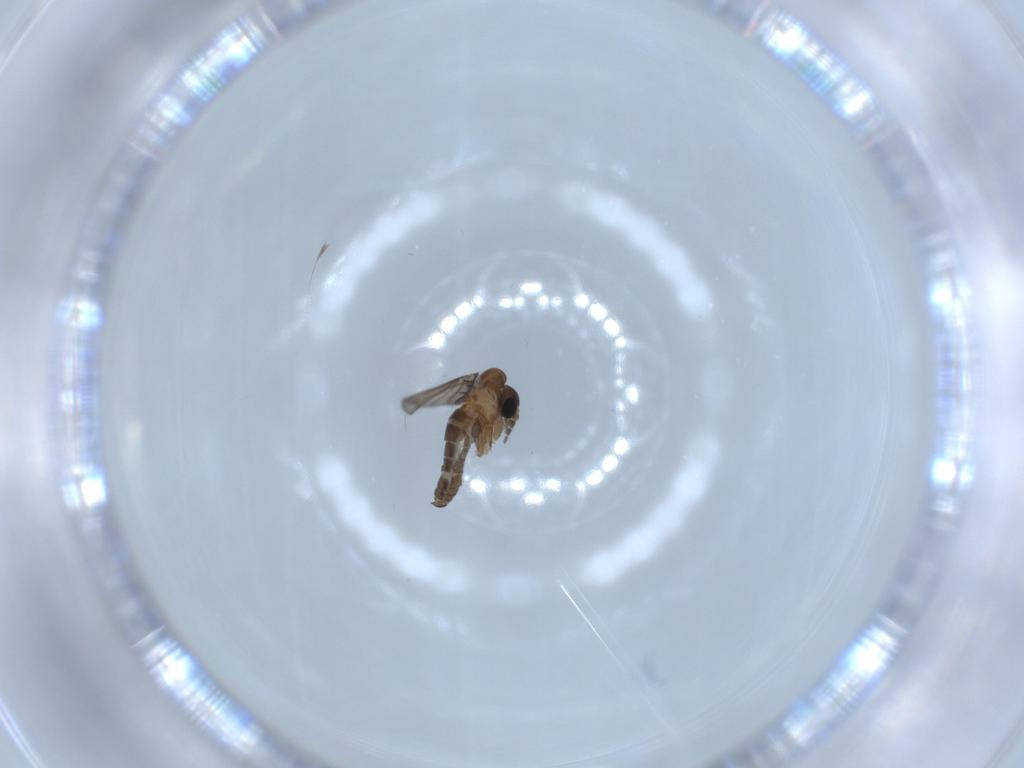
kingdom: Animalia
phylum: Arthropoda
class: Insecta
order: Diptera
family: Psychodidae
